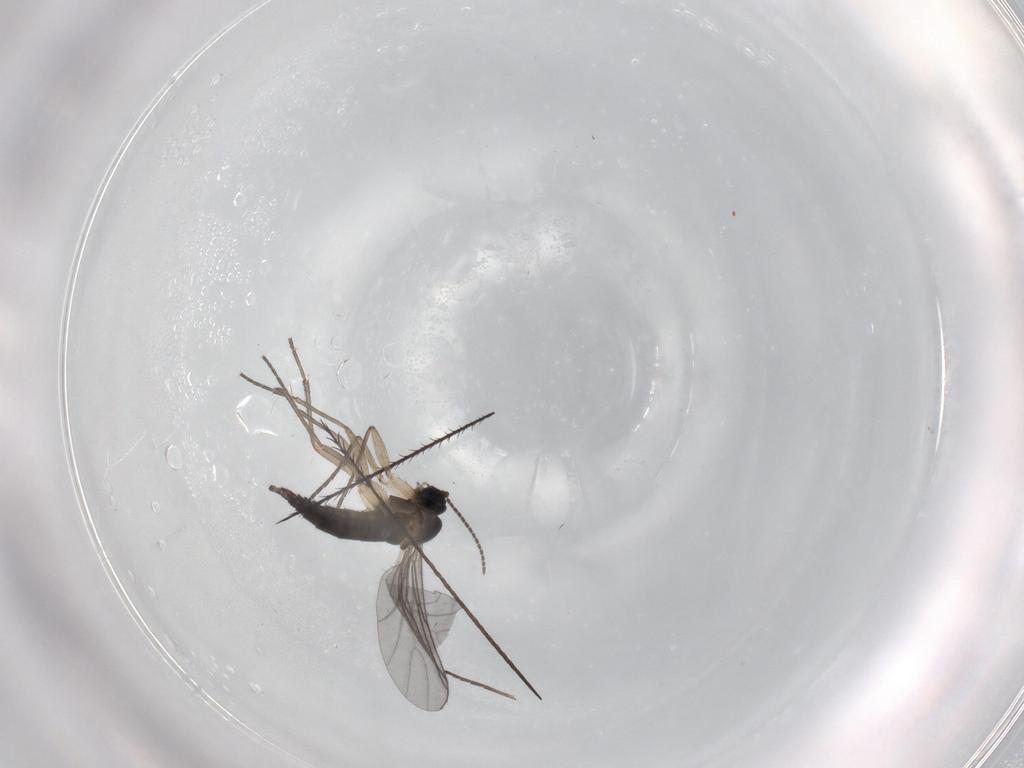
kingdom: Animalia
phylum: Arthropoda
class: Insecta
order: Diptera
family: Sciaridae
